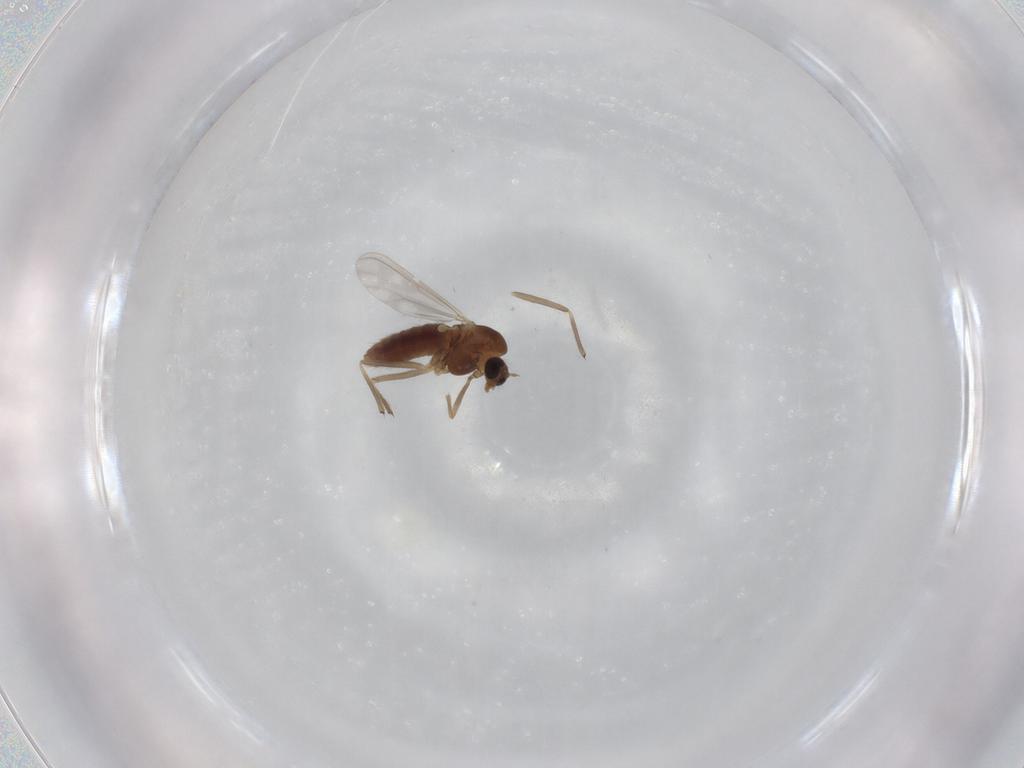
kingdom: Animalia
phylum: Arthropoda
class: Insecta
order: Diptera
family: Chironomidae
